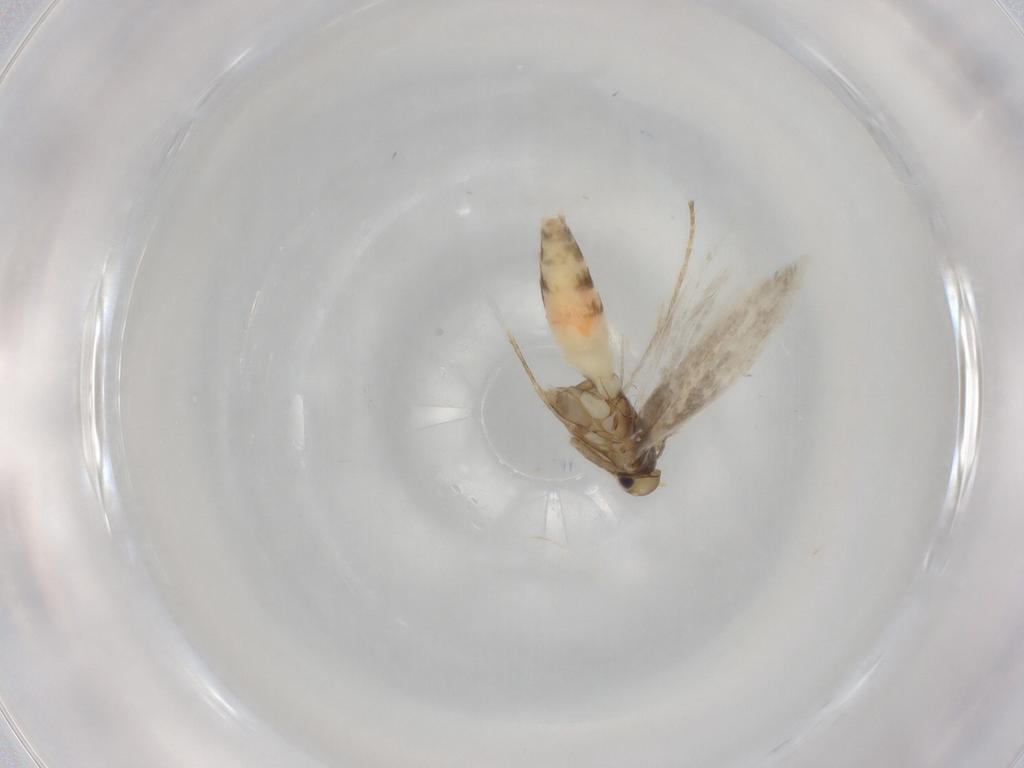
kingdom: Animalia
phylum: Arthropoda
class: Insecta
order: Lepidoptera
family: Gracillariidae
